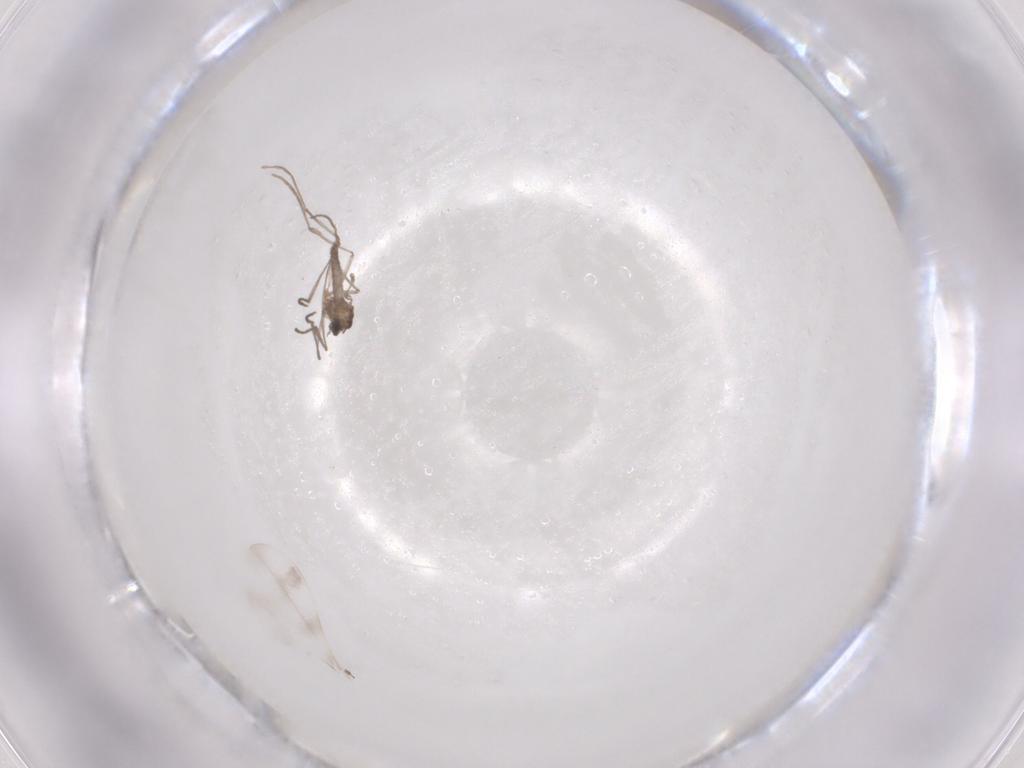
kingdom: Animalia
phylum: Arthropoda
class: Insecta
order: Diptera
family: Cecidomyiidae
